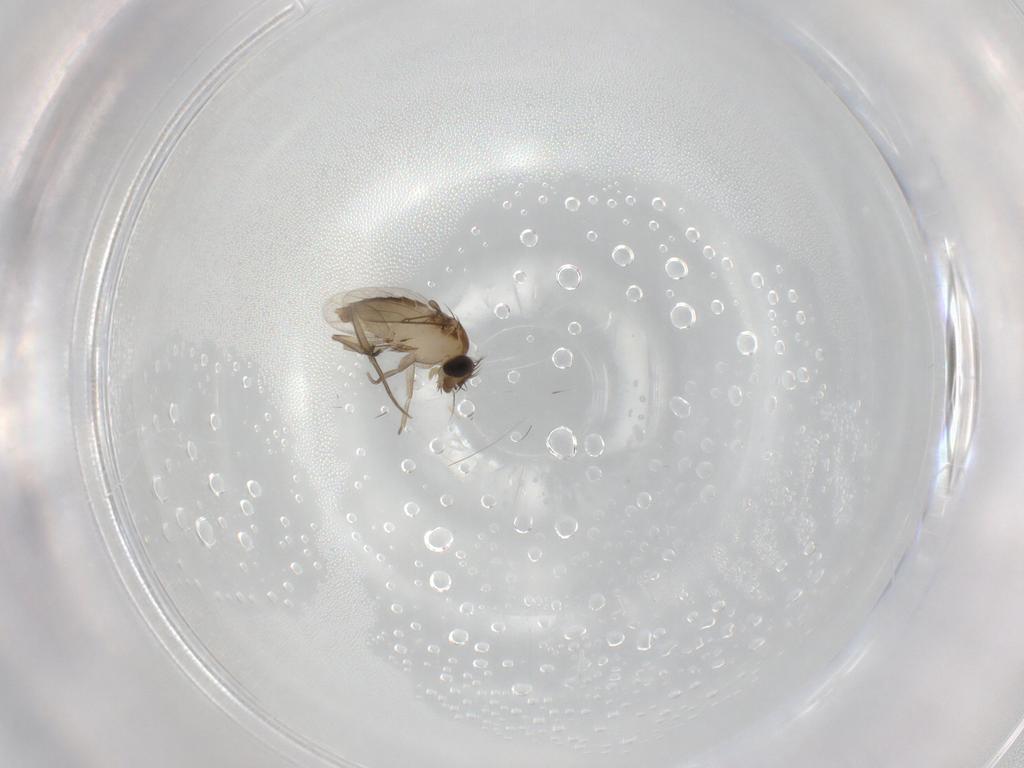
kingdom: Animalia
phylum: Arthropoda
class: Insecta
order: Diptera
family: Phoridae
